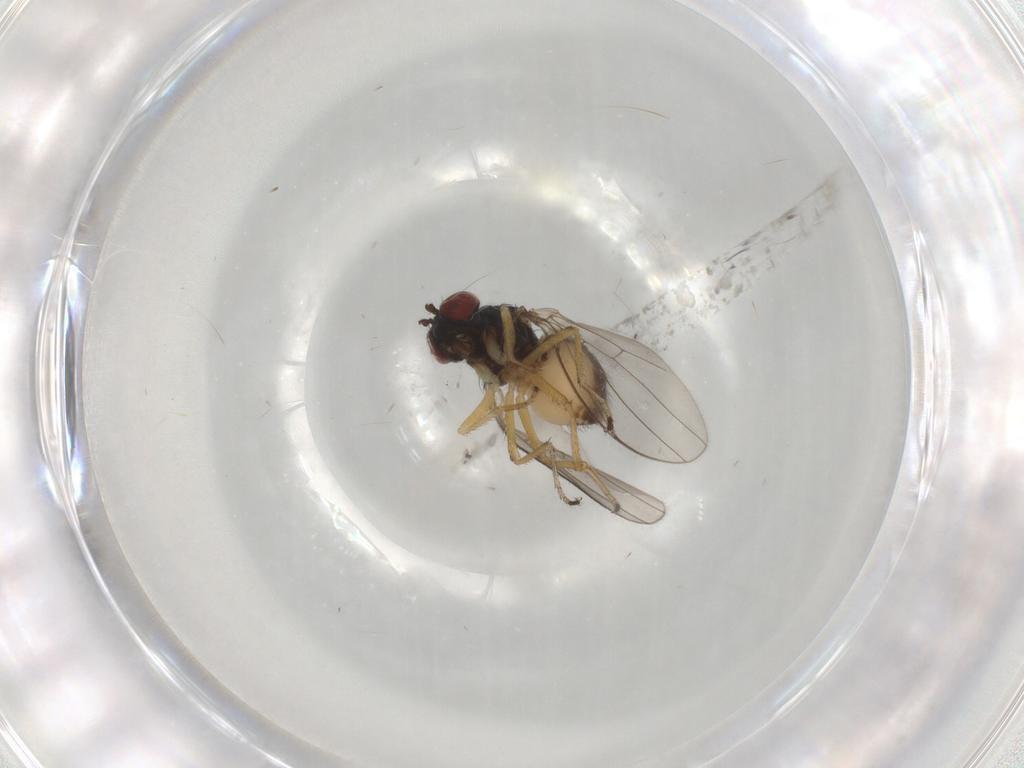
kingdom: Animalia
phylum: Arthropoda
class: Insecta
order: Diptera
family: Ephydridae
